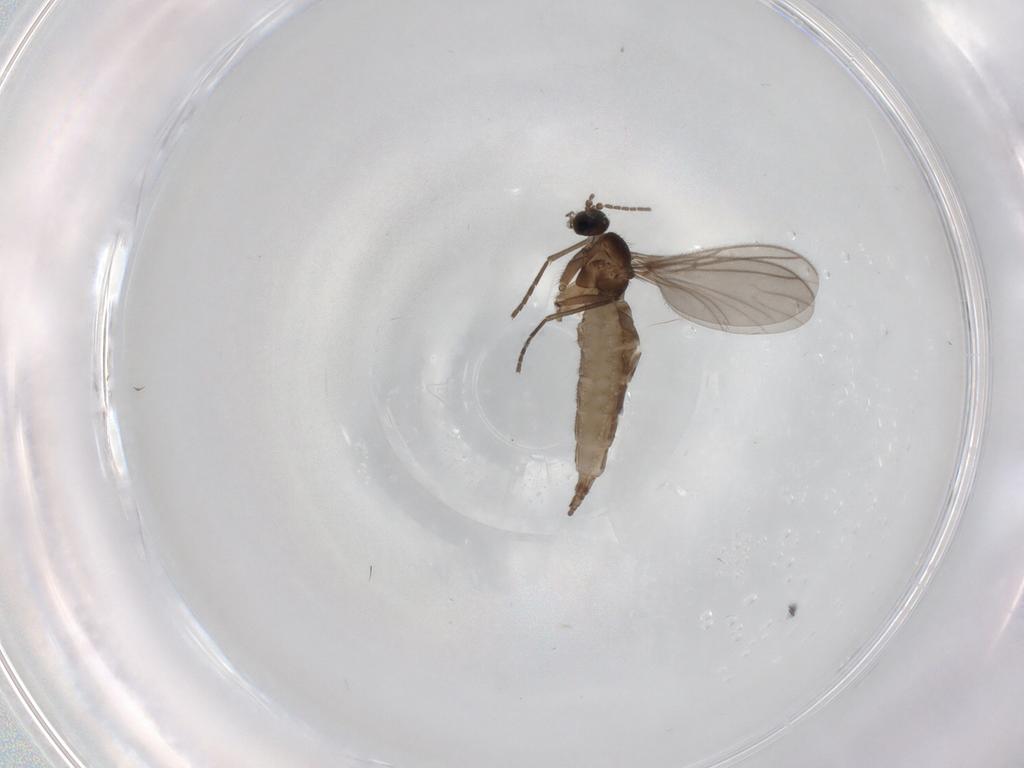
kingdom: Animalia
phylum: Arthropoda
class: Insecta
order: Diptera
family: Sciaridae
